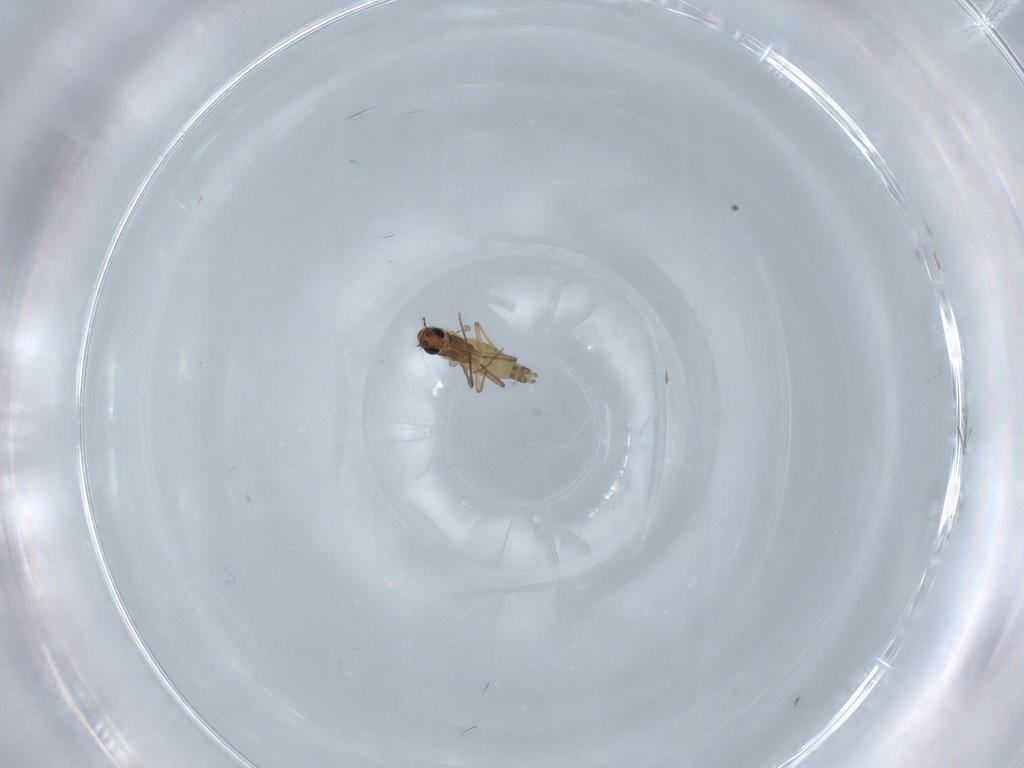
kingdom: Animalia
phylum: Arthropoda
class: Insecta
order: Diptera
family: Chironomidae
